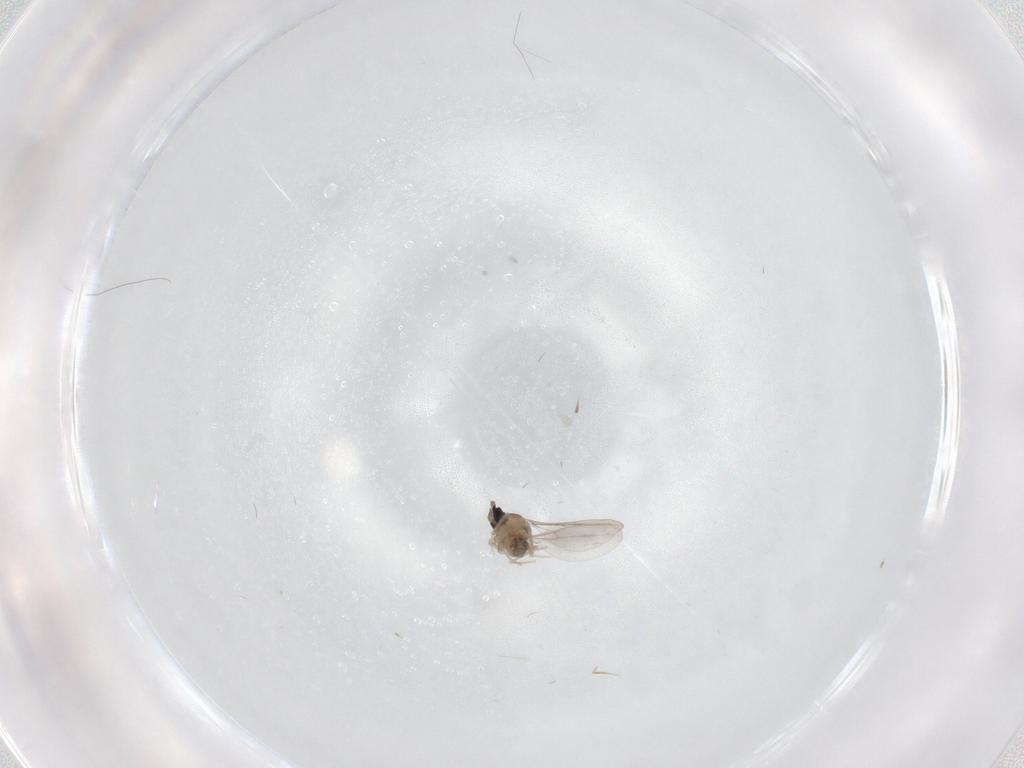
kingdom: Animalia
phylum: Arthropoda
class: Insecta
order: Diptera
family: Cecidomyiidae
